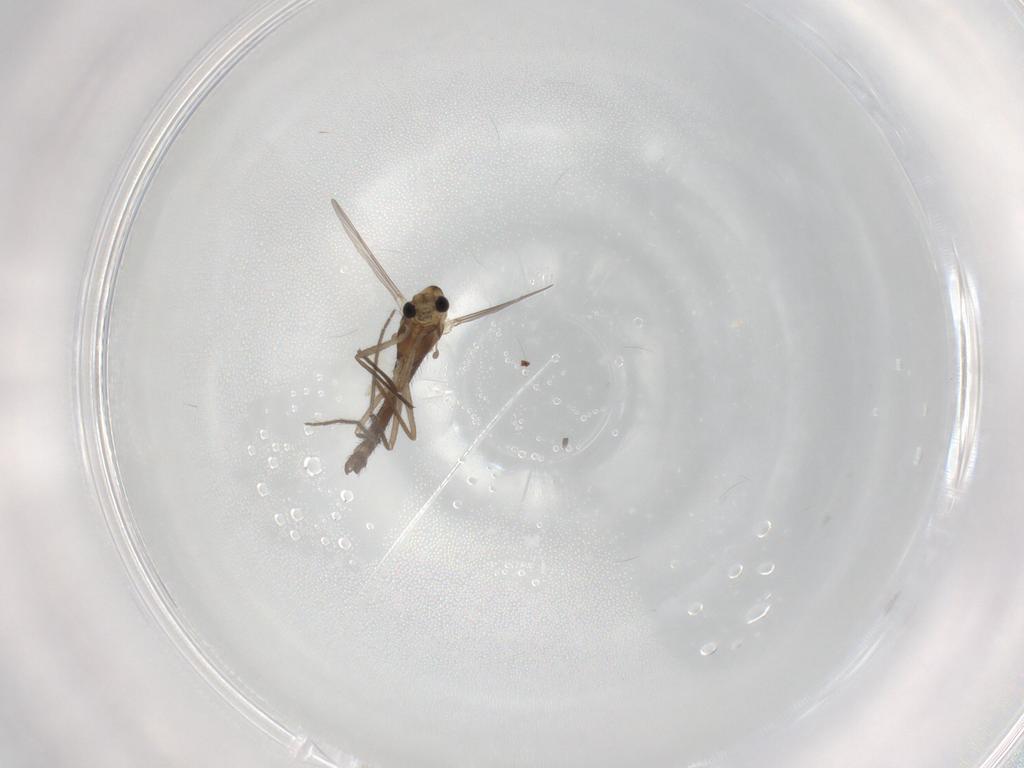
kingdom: Animalia
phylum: Arthropoda
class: Insecta
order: Diptera
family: Chironomidae
